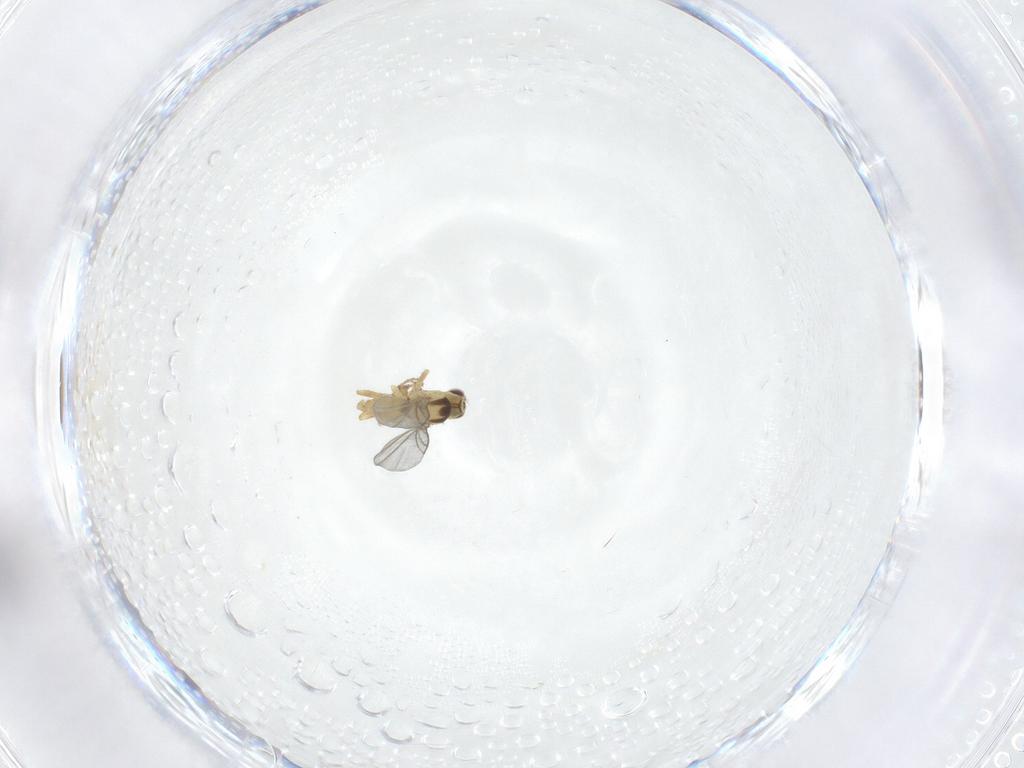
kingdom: Animalia
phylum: Arthropoda
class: Insecta
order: Diptera
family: Agromyzidae
